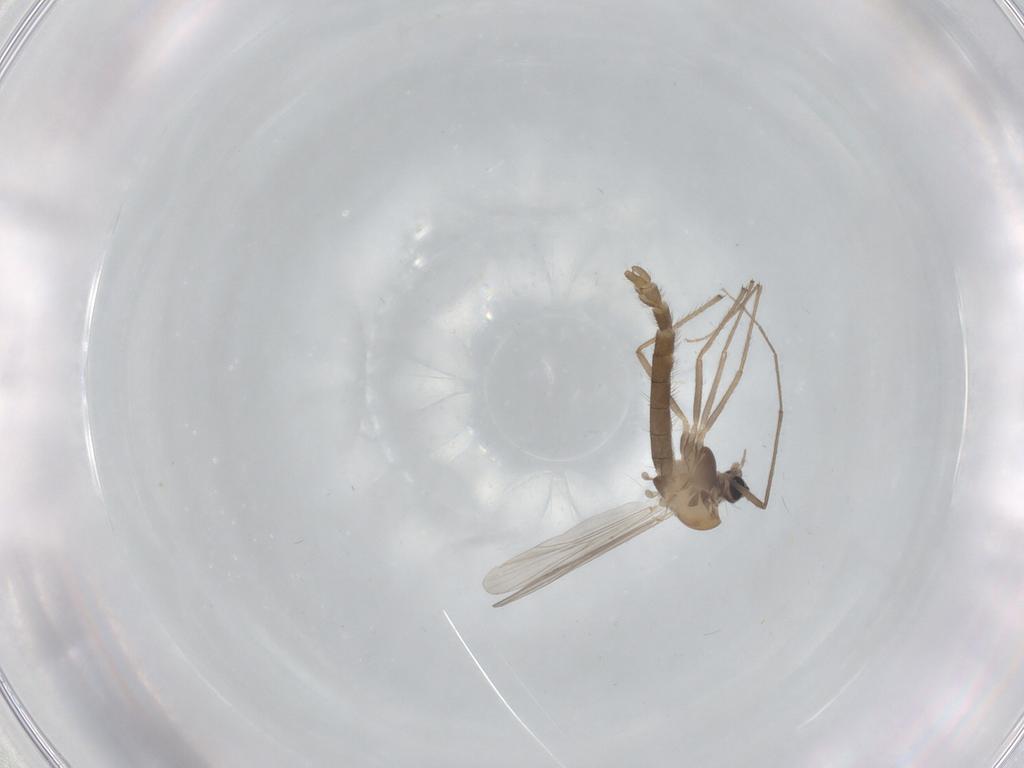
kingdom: Animalia
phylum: Arthropoda
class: Insecta
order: Diptera
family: Chironomidae
